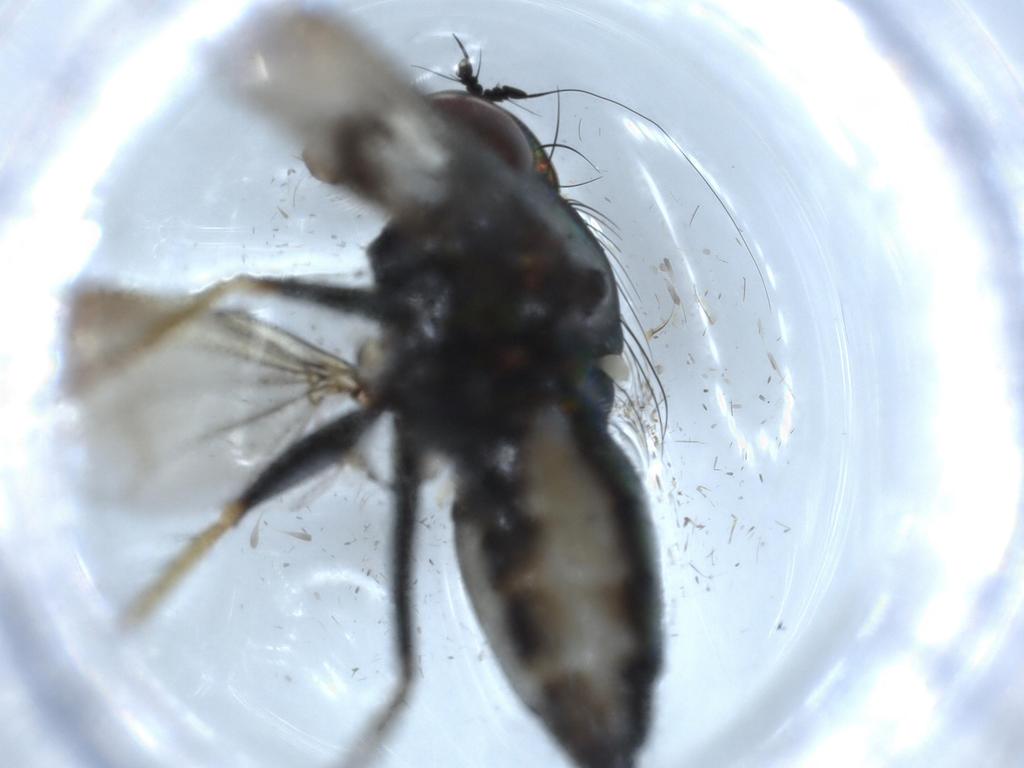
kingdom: Animalia
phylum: Arthropoda
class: Insecta
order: Diptera
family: Dolichopodidae
